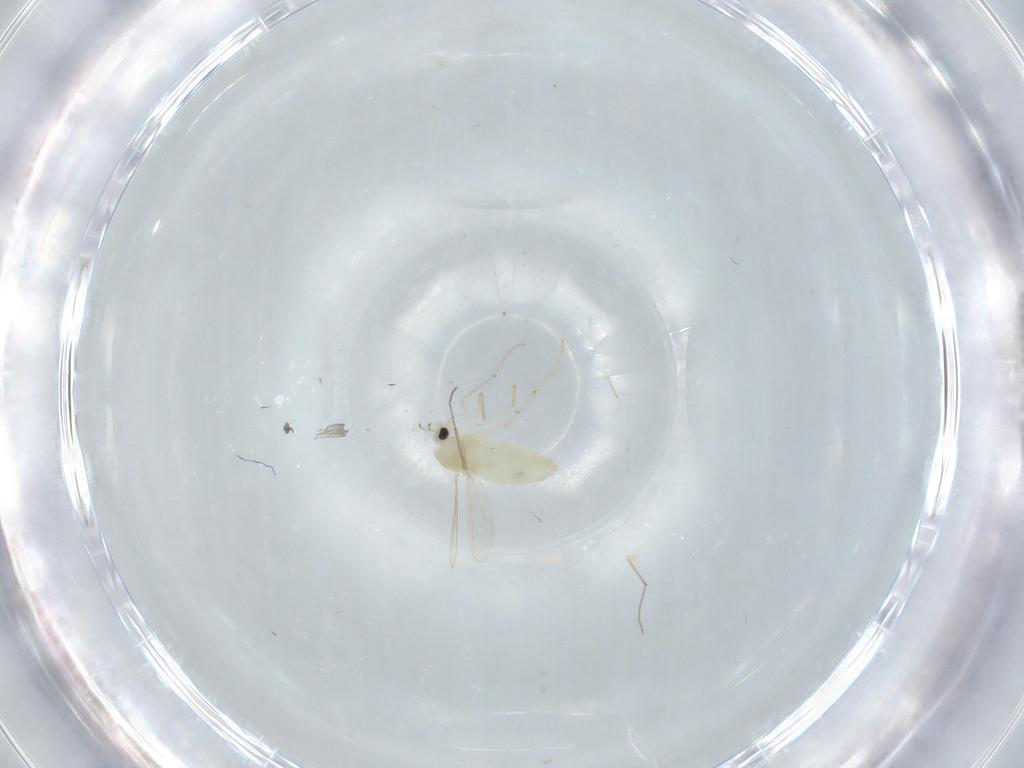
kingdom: Animalia
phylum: Arthropoda
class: Insecta
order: Diptera
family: Chironomidae
